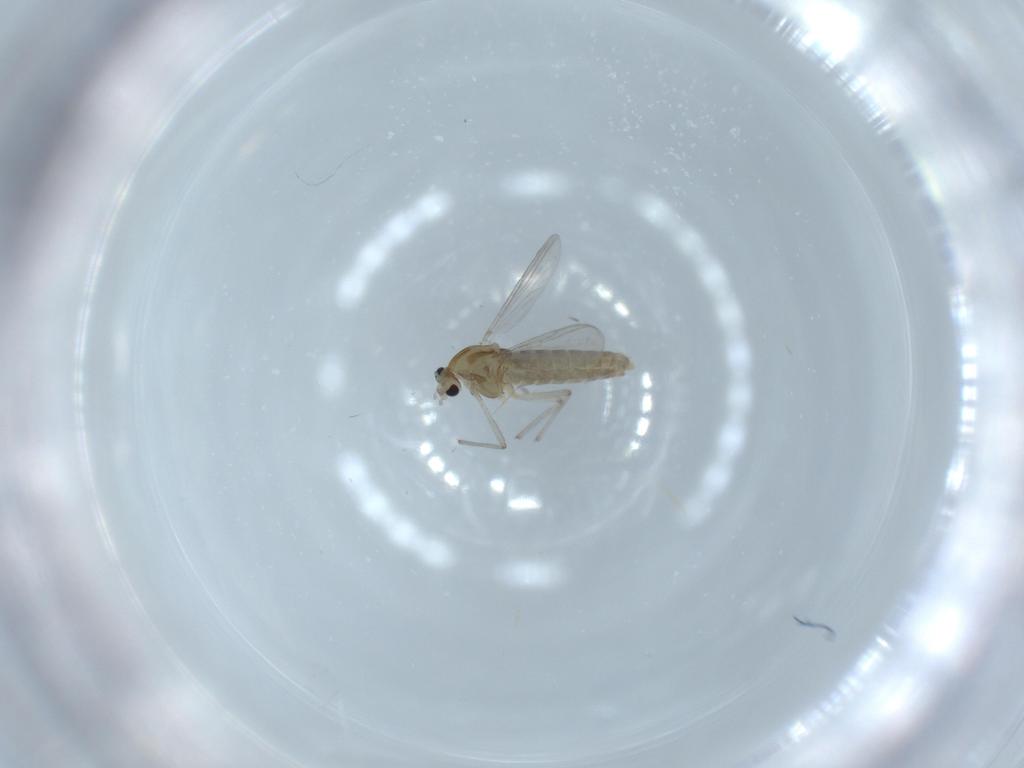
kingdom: Animalia
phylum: Arthropoda
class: Insecta
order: Diptera
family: Chironomidae
